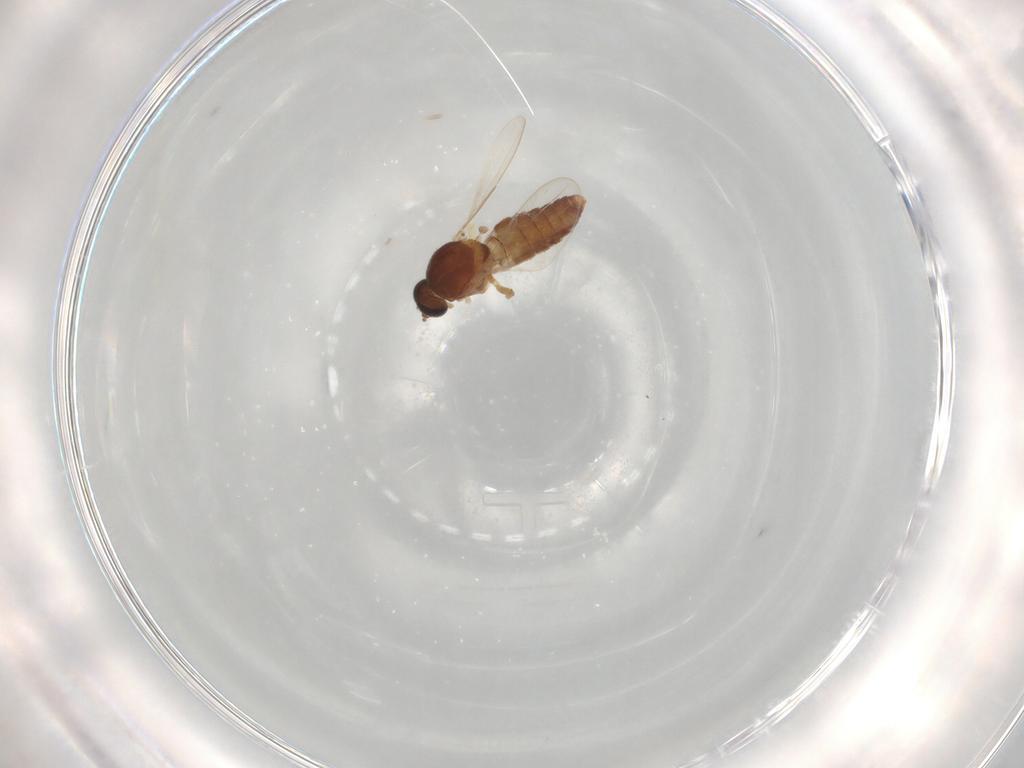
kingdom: Animalia
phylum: Arthropoda
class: Insecta
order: Diptera
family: Ceratopogonidae
